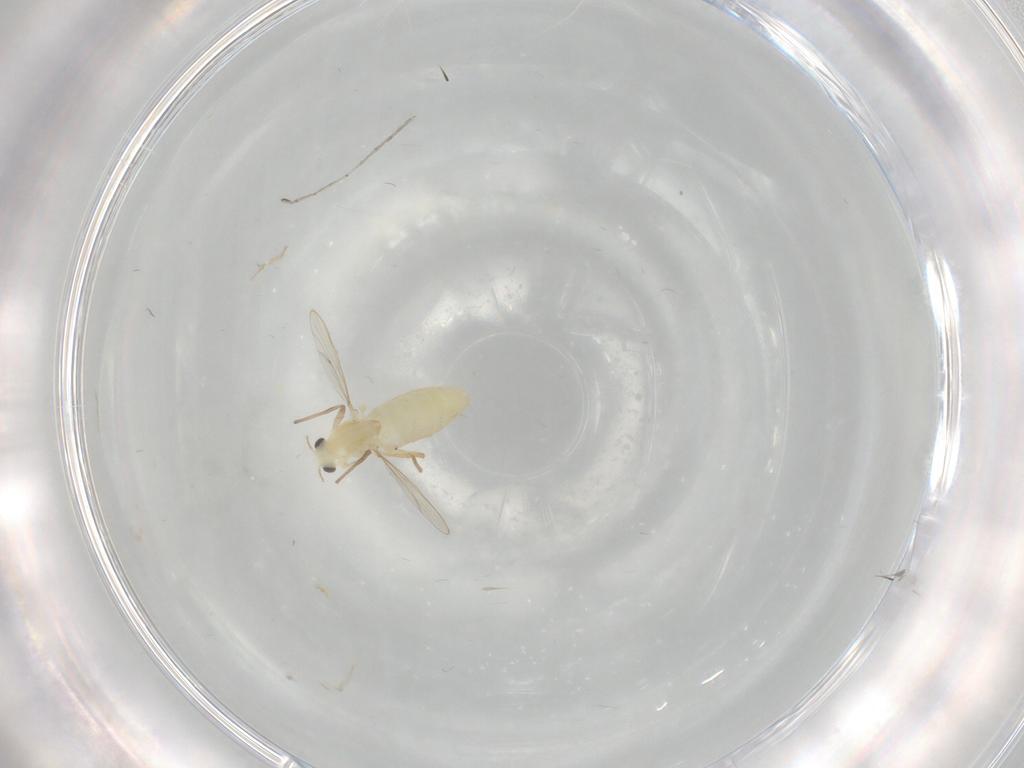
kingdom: Animalia
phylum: Arthropoda
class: Insecta
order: Diptera
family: Chironomidae
